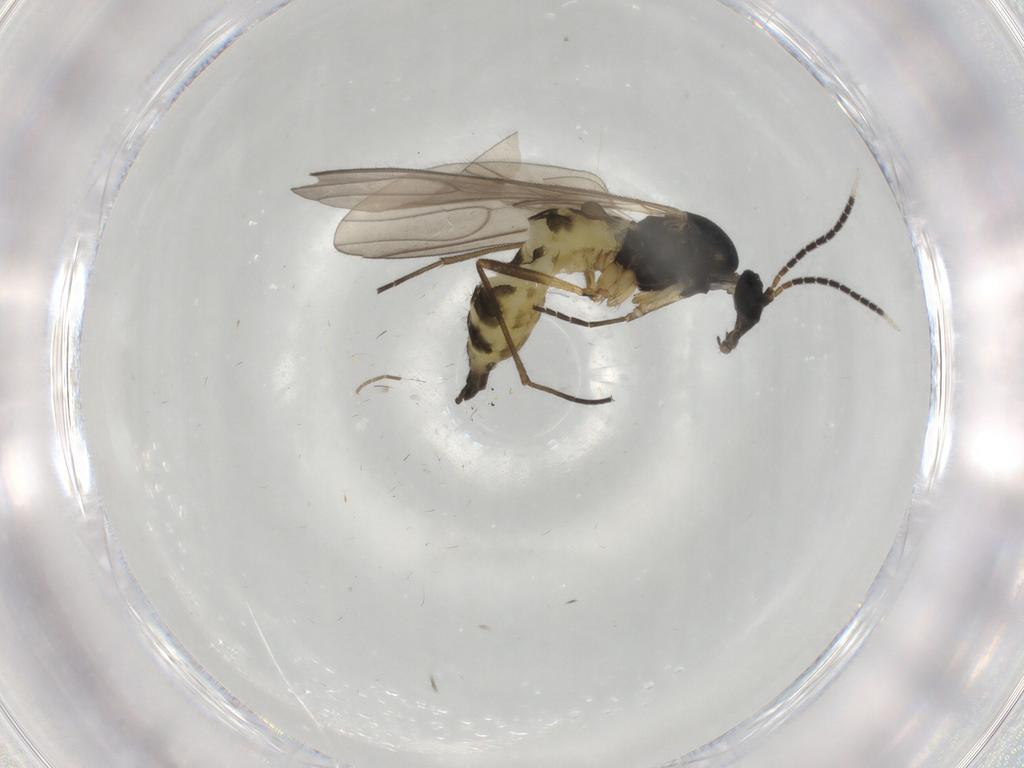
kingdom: Animalia
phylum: Arthropoda
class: Insecta
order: Diptera
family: Sciaridae
